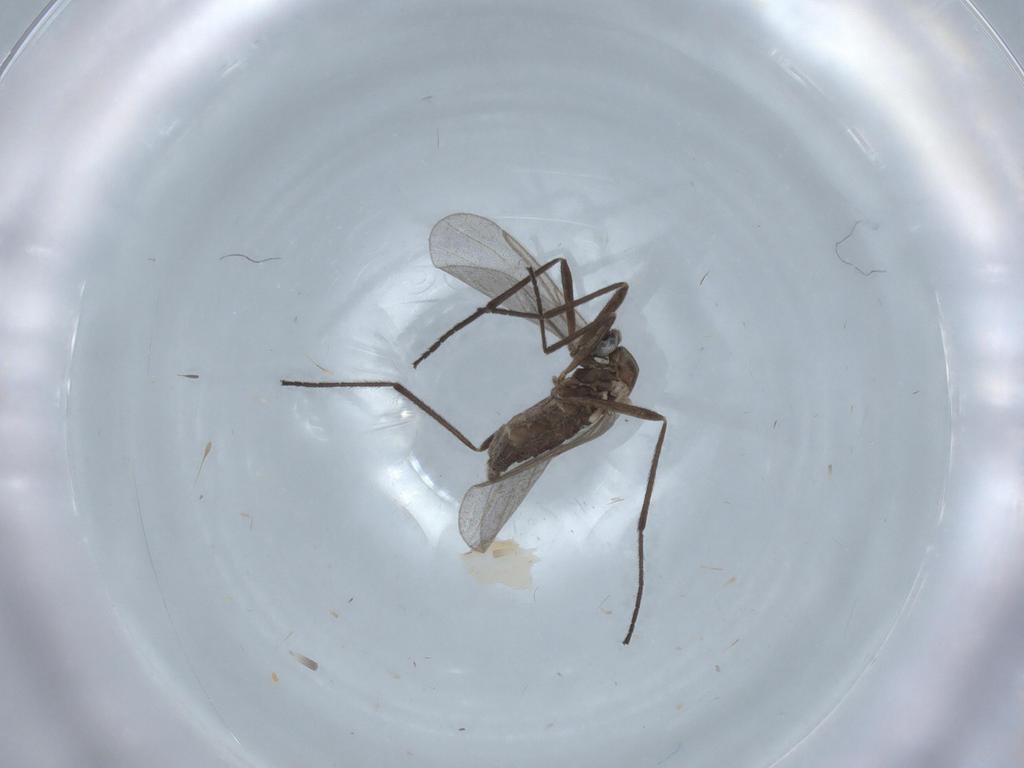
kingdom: Animalia
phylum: Arthropoda
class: Insecta
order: Diptera
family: Cecidomyiidae
